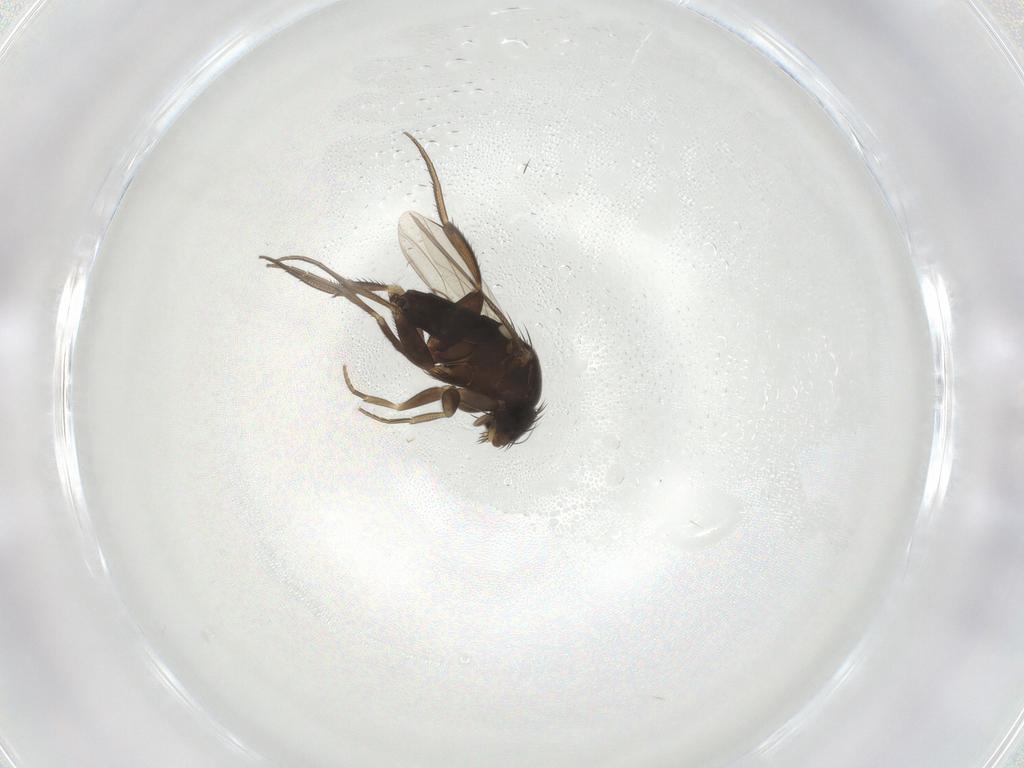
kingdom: Animalia
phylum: Arthropoda
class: Insecta
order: Diptera
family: Phoridae
